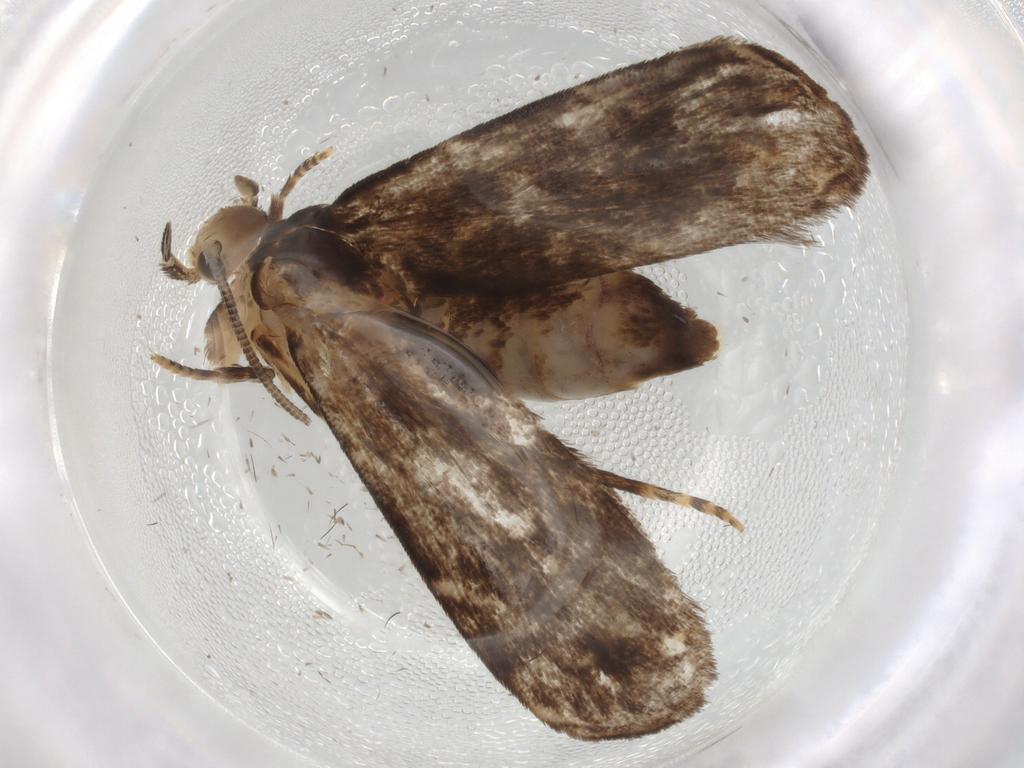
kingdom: Animalia
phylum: Arthropoda
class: Insecta
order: Lepidoptera
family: Dryadaulidae
